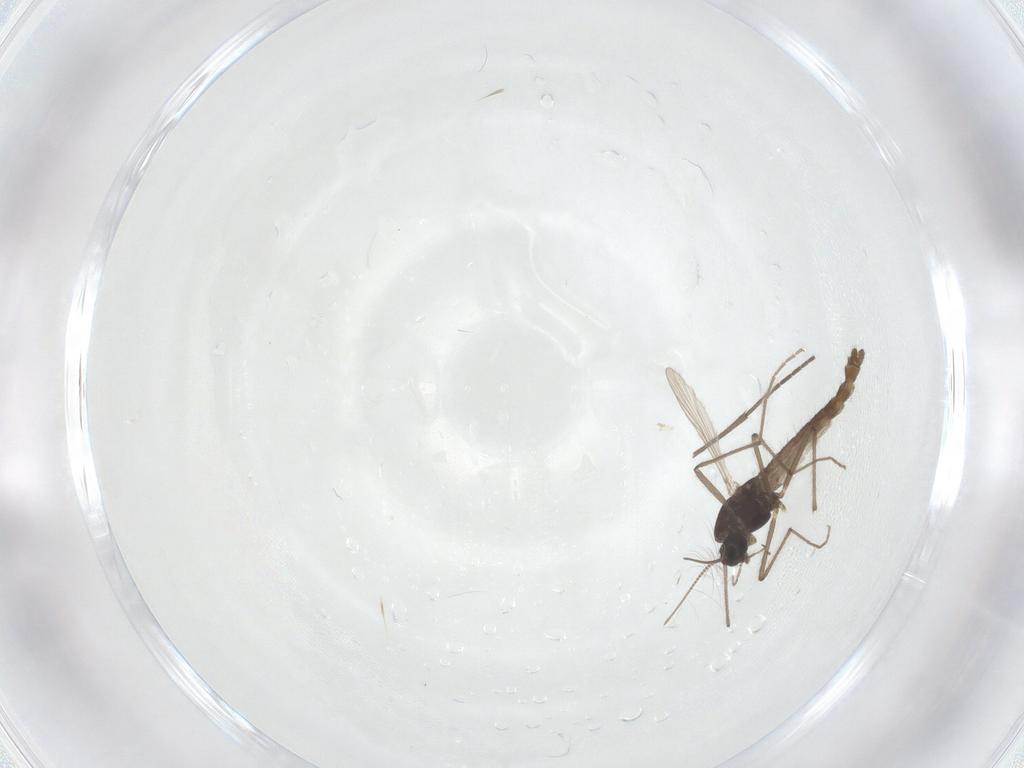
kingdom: Animalia
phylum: Arthropoda
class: Insecta
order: Diptera
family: Chironomidae
